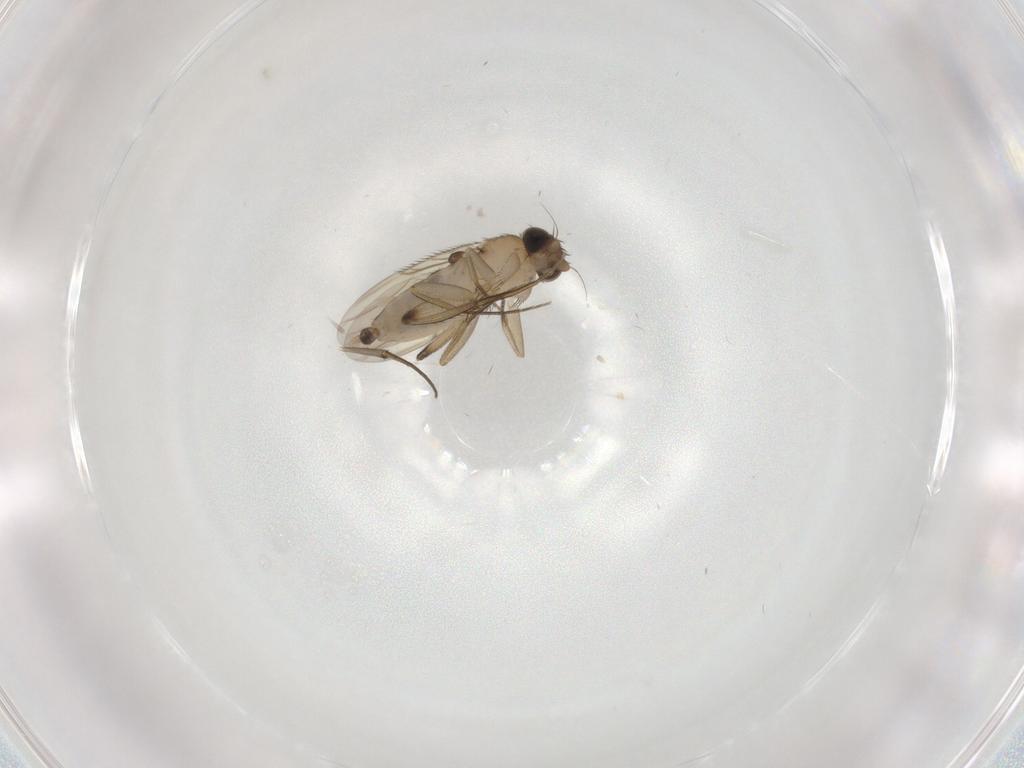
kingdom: Animalia
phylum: Arthropoda
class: Insecta
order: Diptera
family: Phoridae
